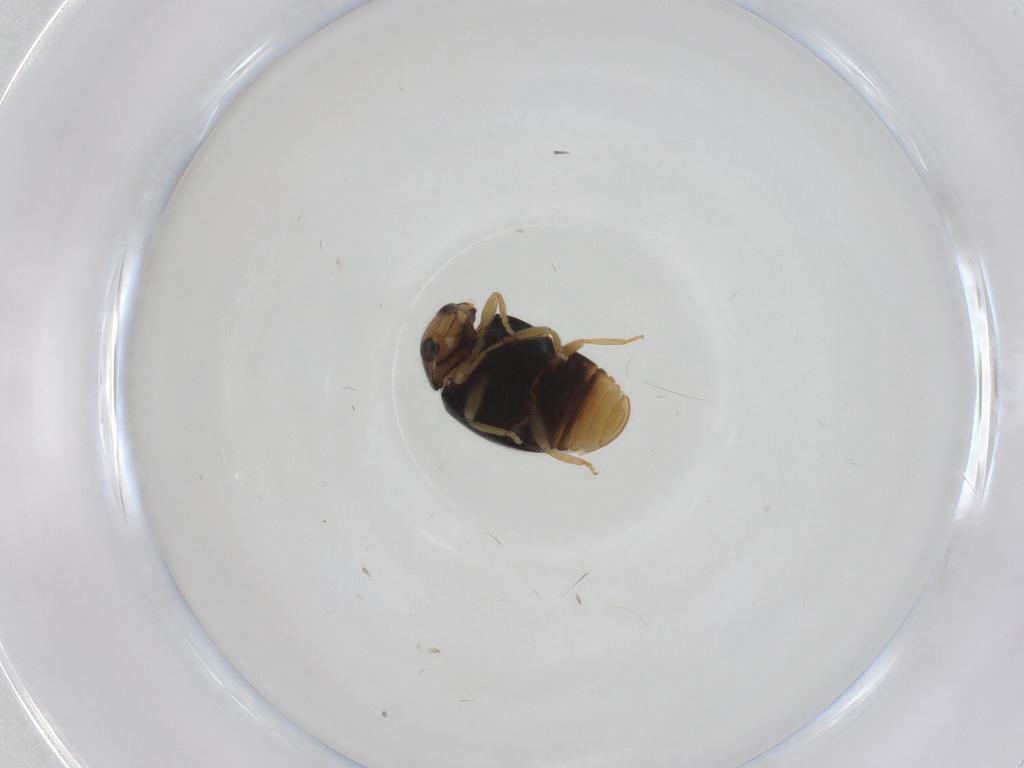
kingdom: Animalia
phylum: Arthropoda
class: Insecta
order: Coleoptera
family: Coccinellidae
